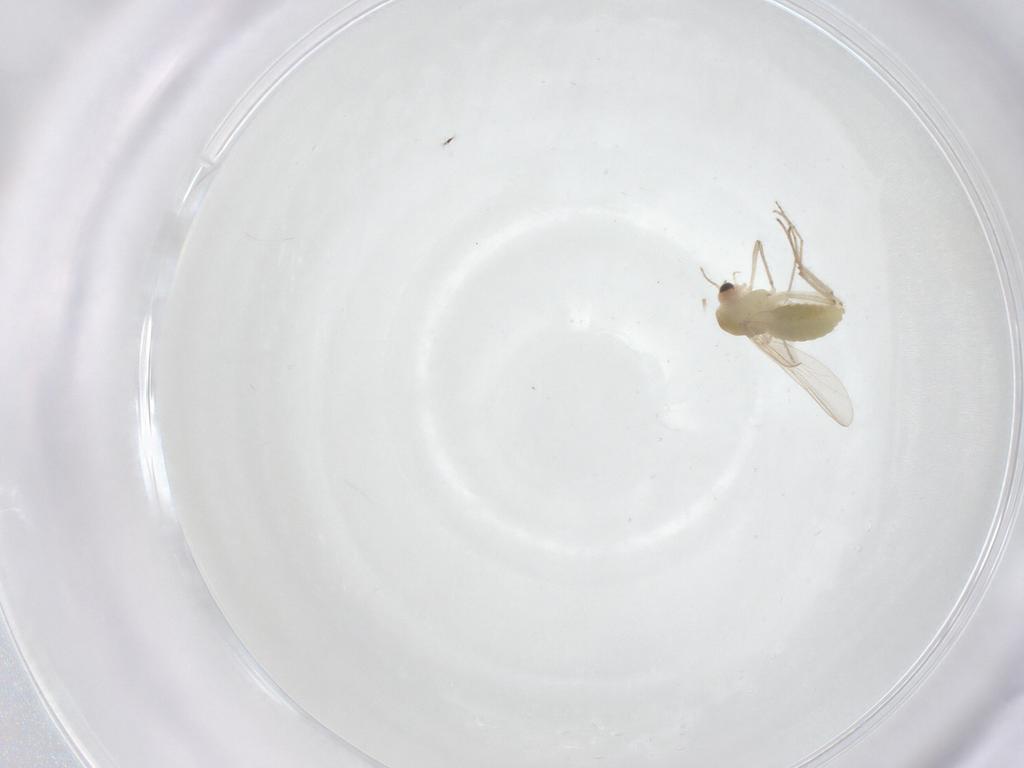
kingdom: Animalia
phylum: Arthropoda
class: Insecta
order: Diptera
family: Chironomidae
